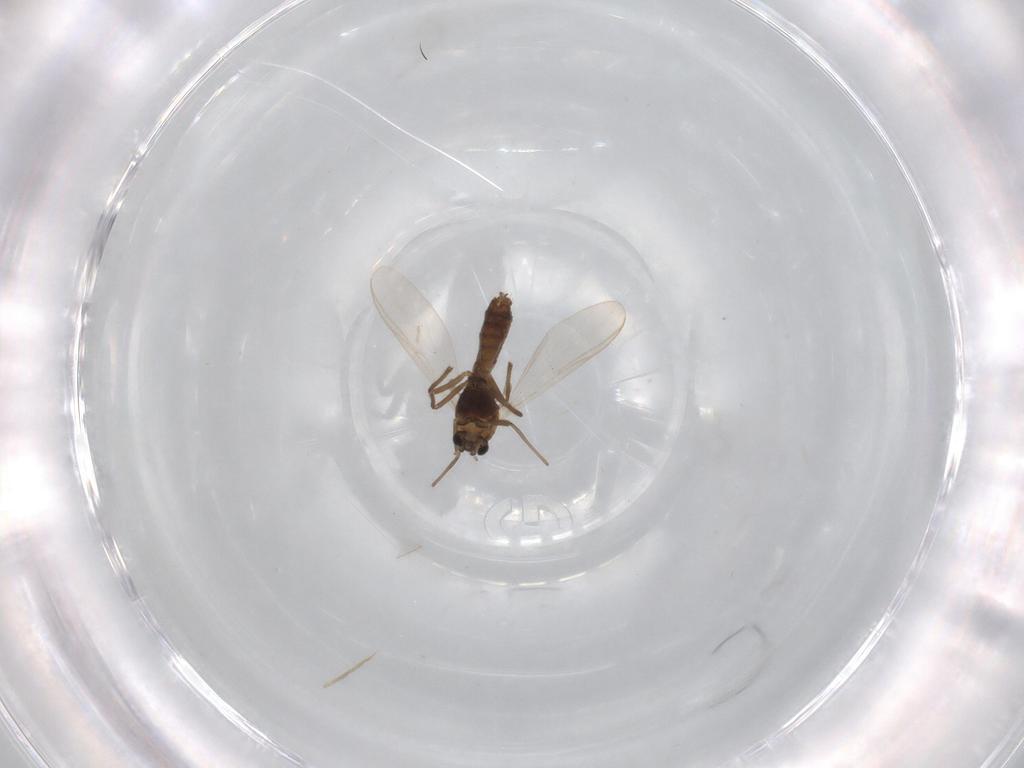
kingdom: Animalia
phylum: Arthropoda
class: Insecta
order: Diptera
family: Chironomidae
